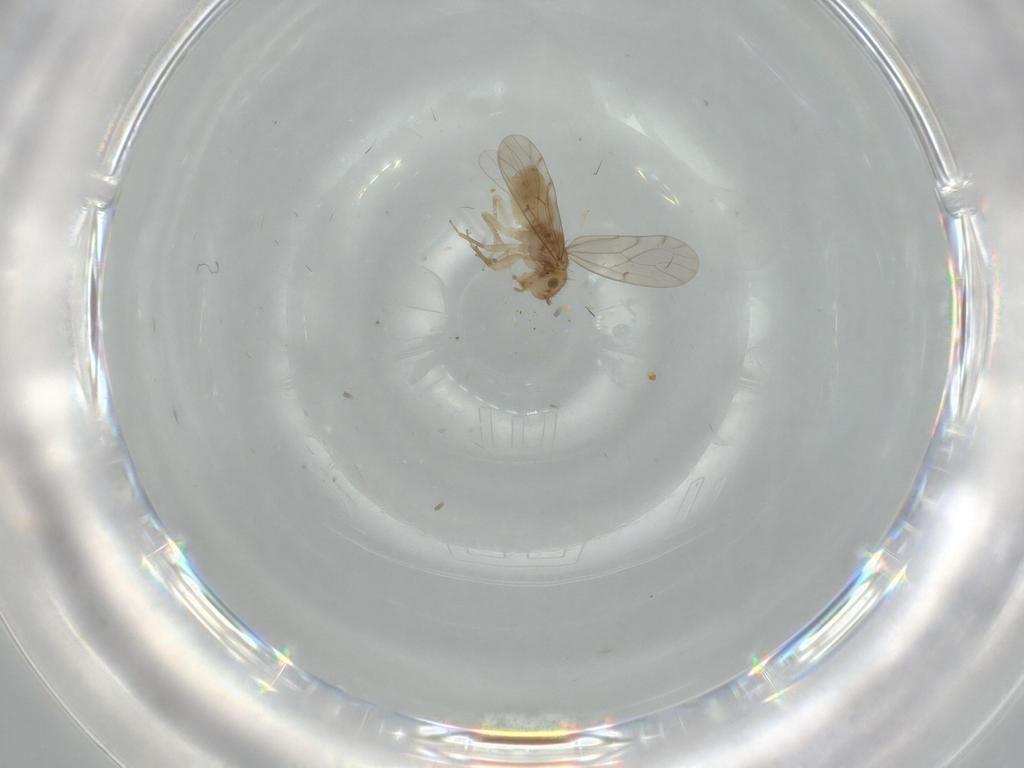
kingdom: Animalia
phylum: Arthropoda
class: Insecta
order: Psocodea
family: Ectopsocidae
